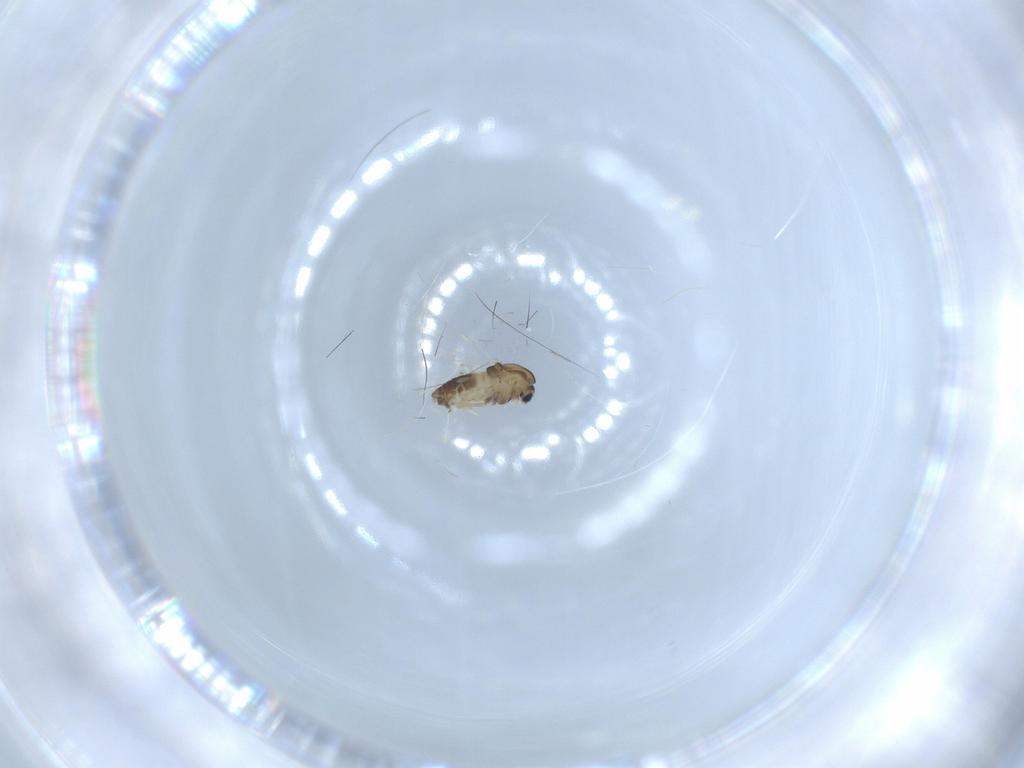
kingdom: Animalia
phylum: Arthropoda
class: Insecta
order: Diptera
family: Chironomidae
